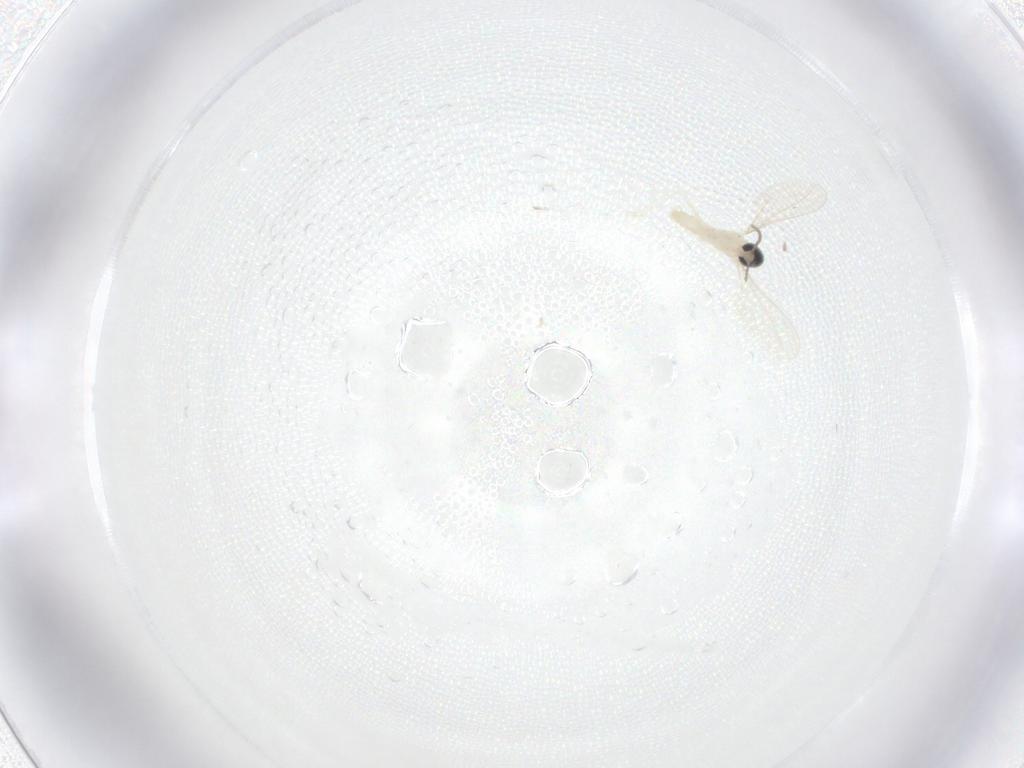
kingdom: Animalia
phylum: Arthropoda
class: Insecta
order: Diptera
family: Cecidomyiidae
